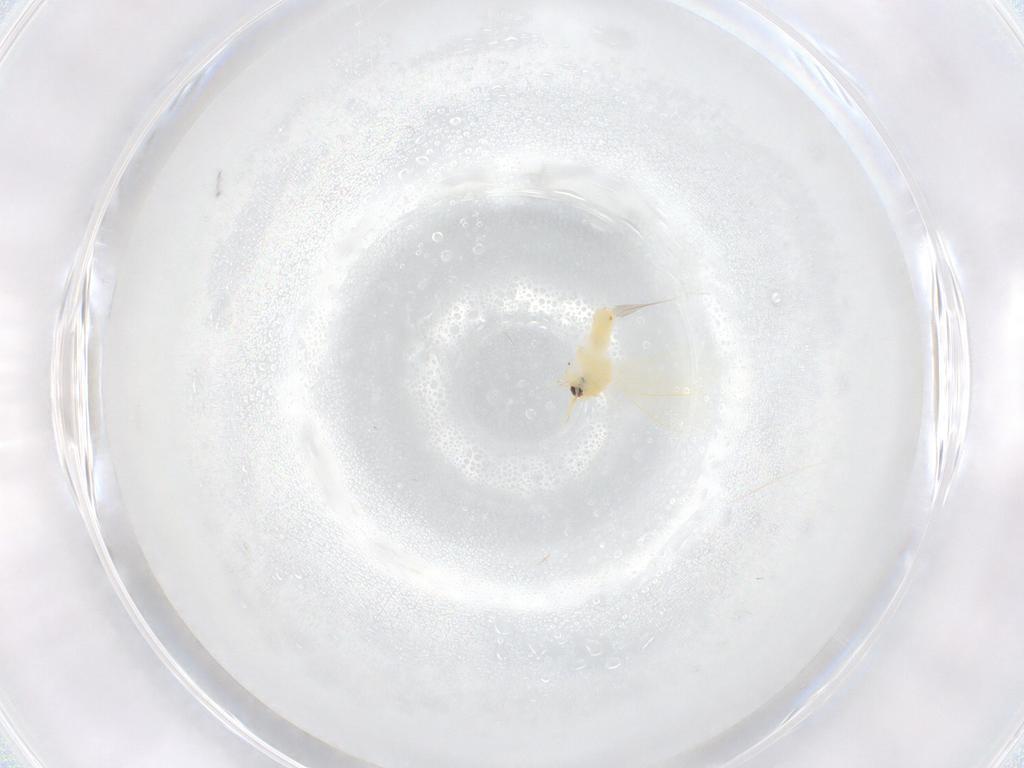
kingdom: Animalia
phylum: Arthropoda
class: Insecta
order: Hemiptera
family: Aleyrodidae
